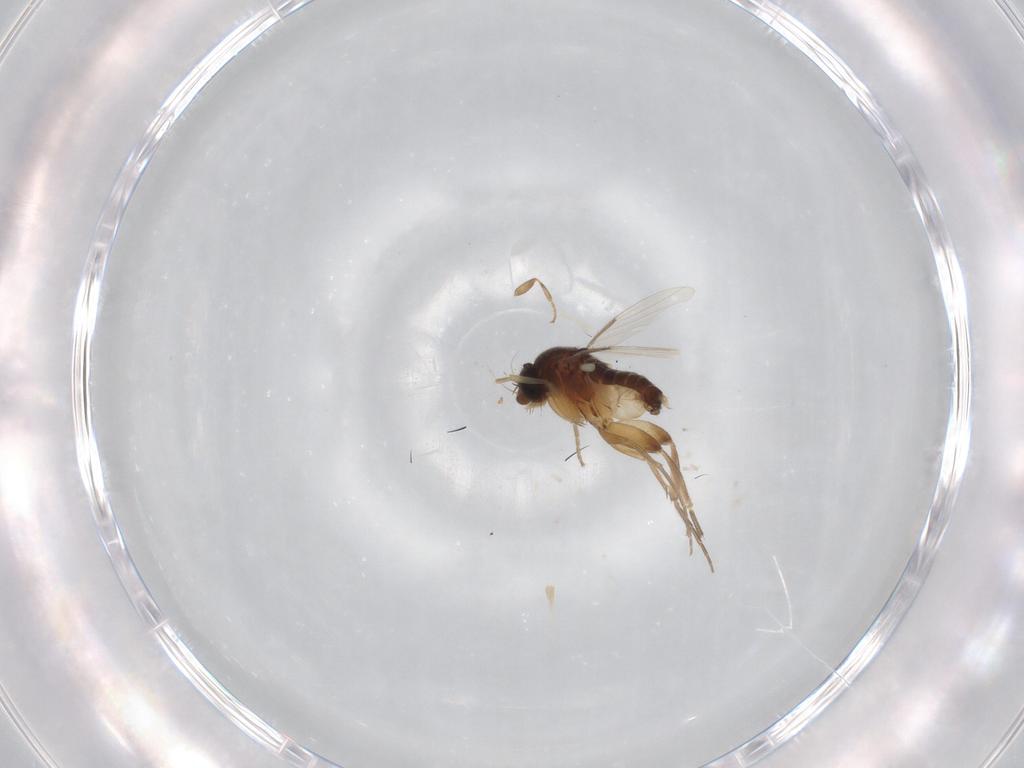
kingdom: Animalia
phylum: Arthropoda
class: Insecta
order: Diptera
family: Phoridae
